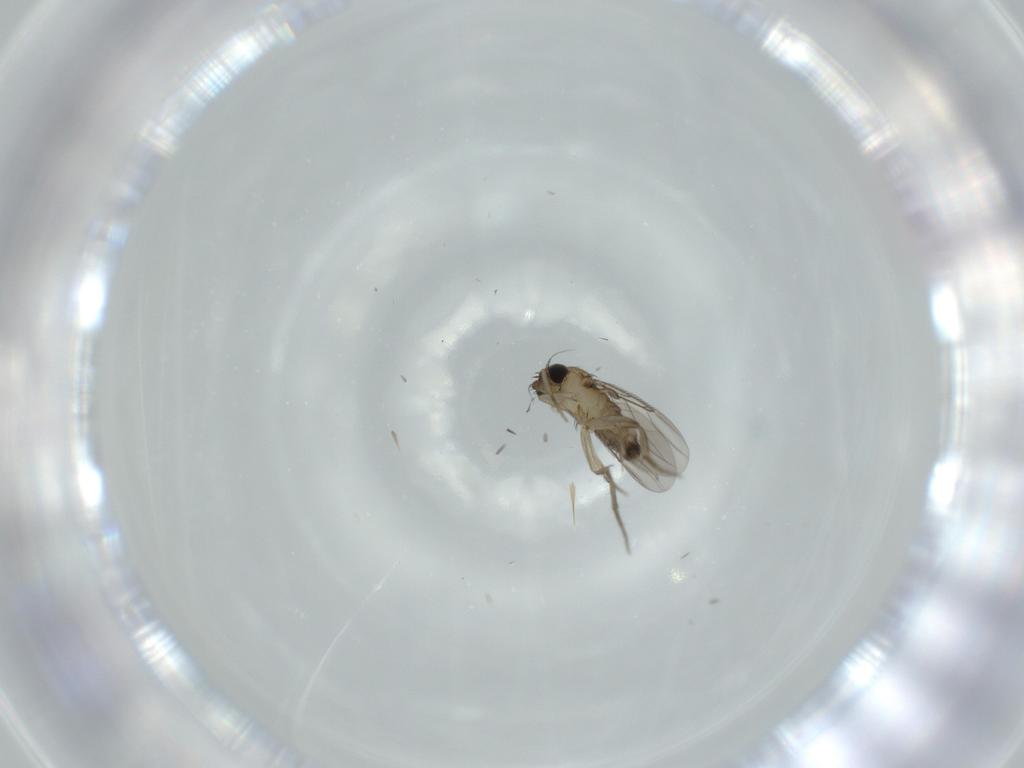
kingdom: Animalia
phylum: Arthropoda
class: Insecta
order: Diptera
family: Phoridae
